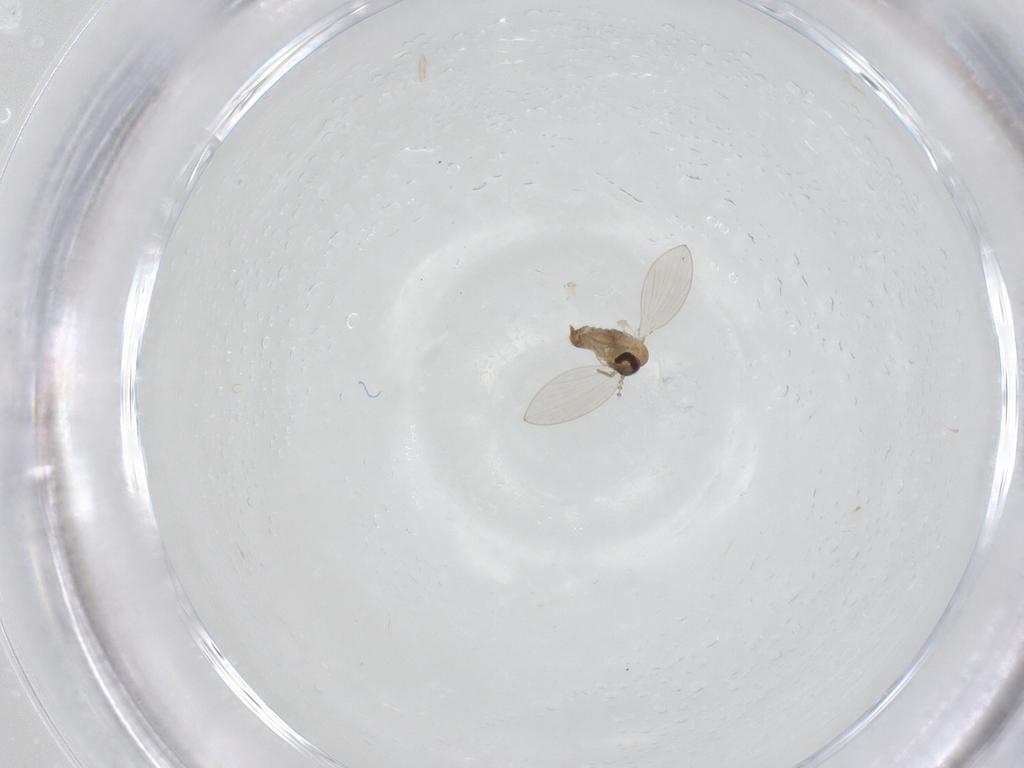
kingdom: Animalia
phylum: Arthropoda
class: Insecta
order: Diptera
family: Psychodidae
